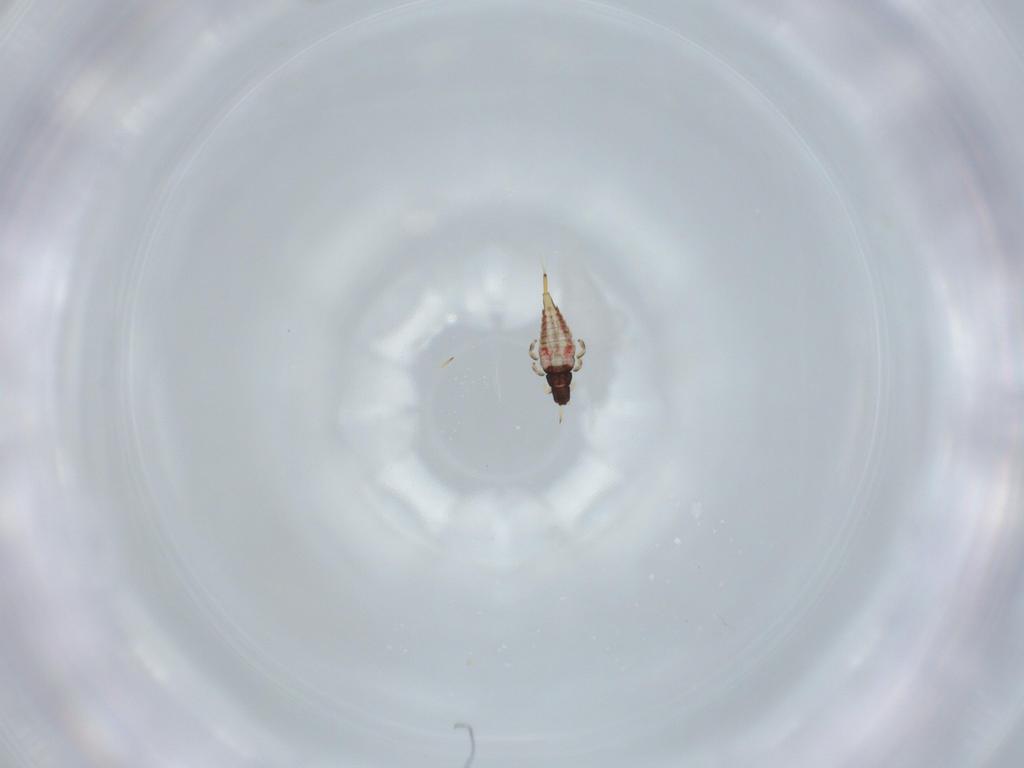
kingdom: Animalia
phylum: Arthropoda
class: Insecta
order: Thysanoptera
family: Phlaeothripidae
